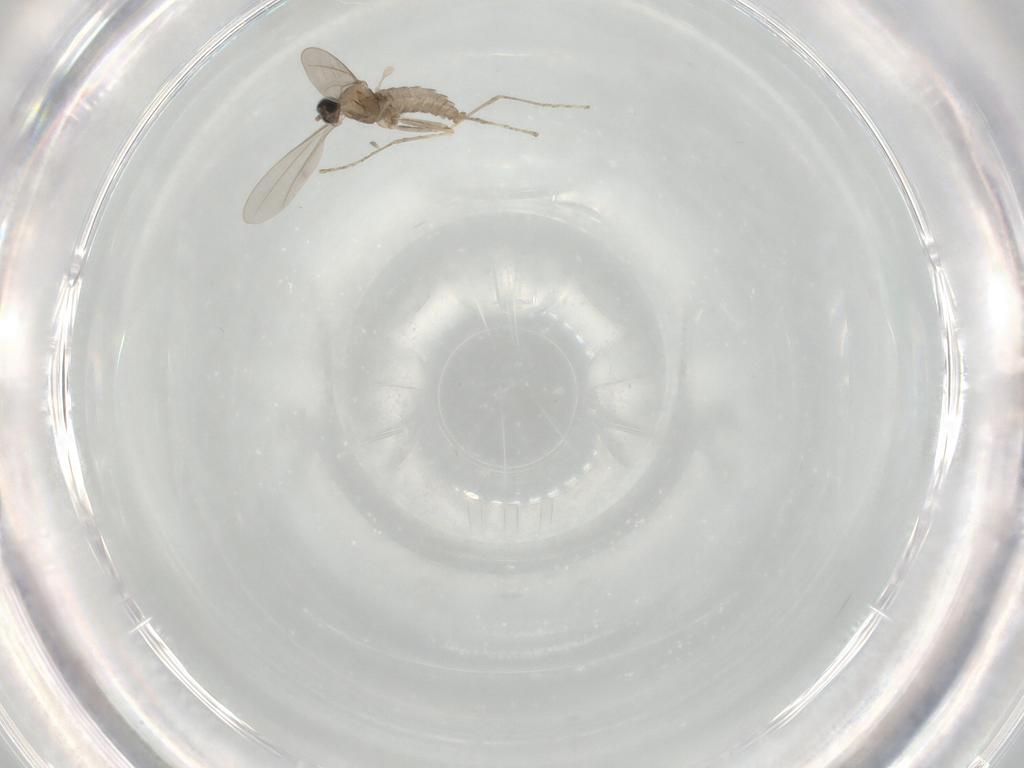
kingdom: Animalia
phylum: Arthropoda
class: Insecta
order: Diptera
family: Cecidomyiidae
